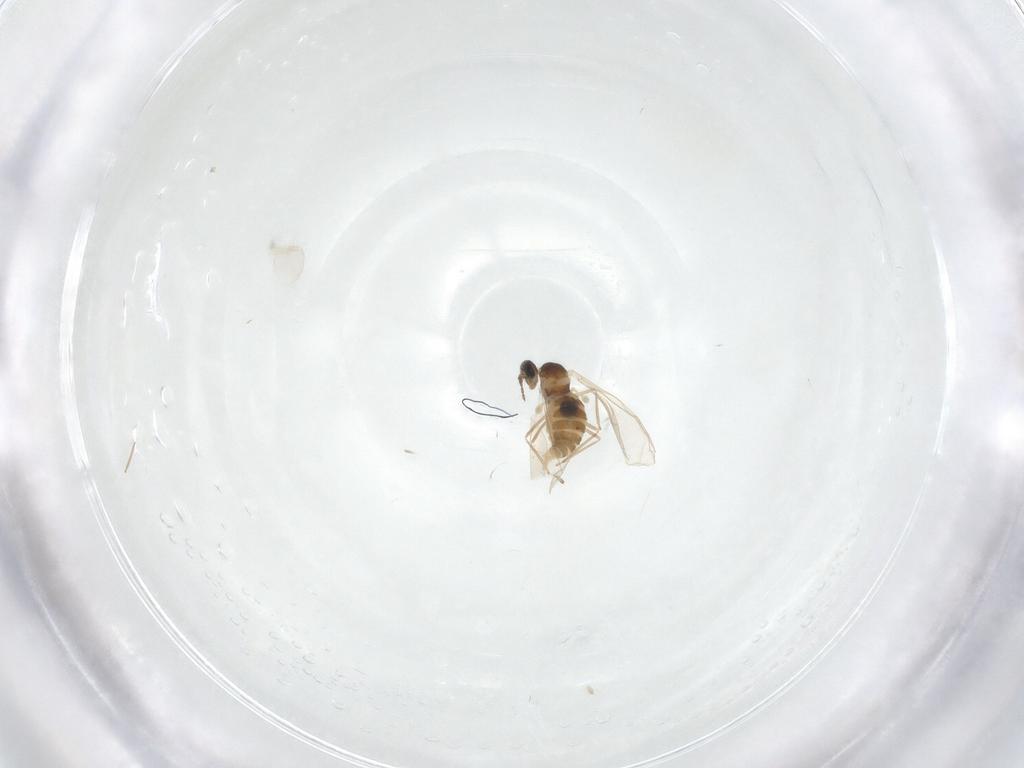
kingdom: Animalia
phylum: Arthropoda
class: Insecta
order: Diptera
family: Cecidomyiidae
